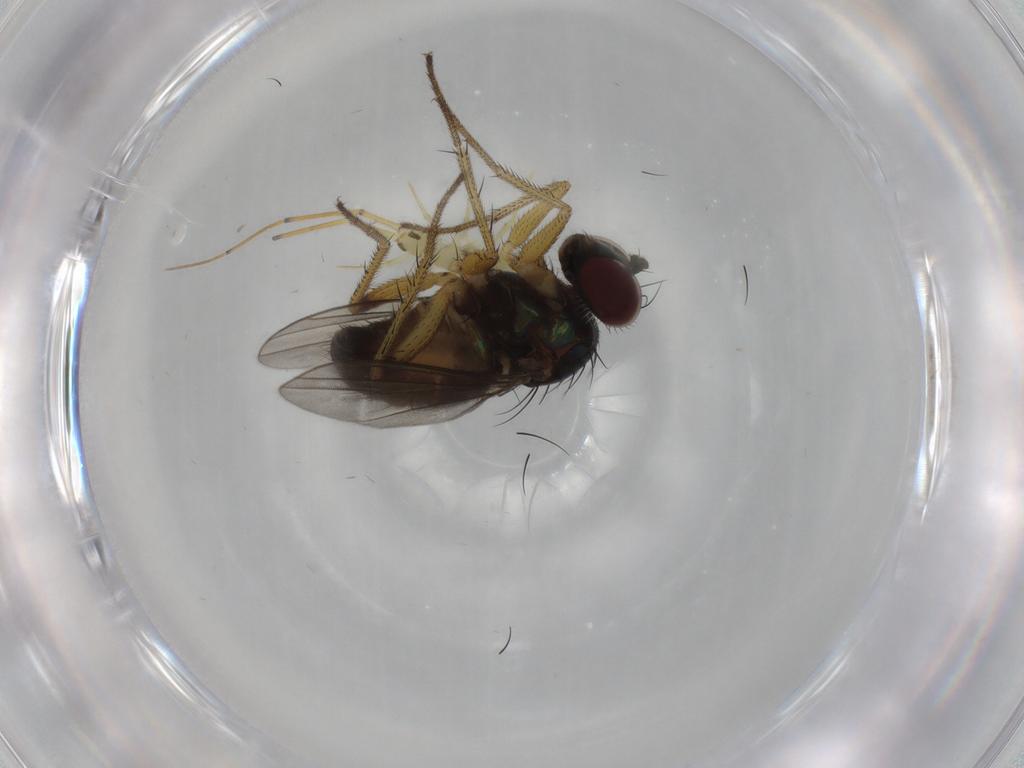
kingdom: Animalia
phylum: Arthropoda
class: Insecta
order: Diptera
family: Dolichopodidae
